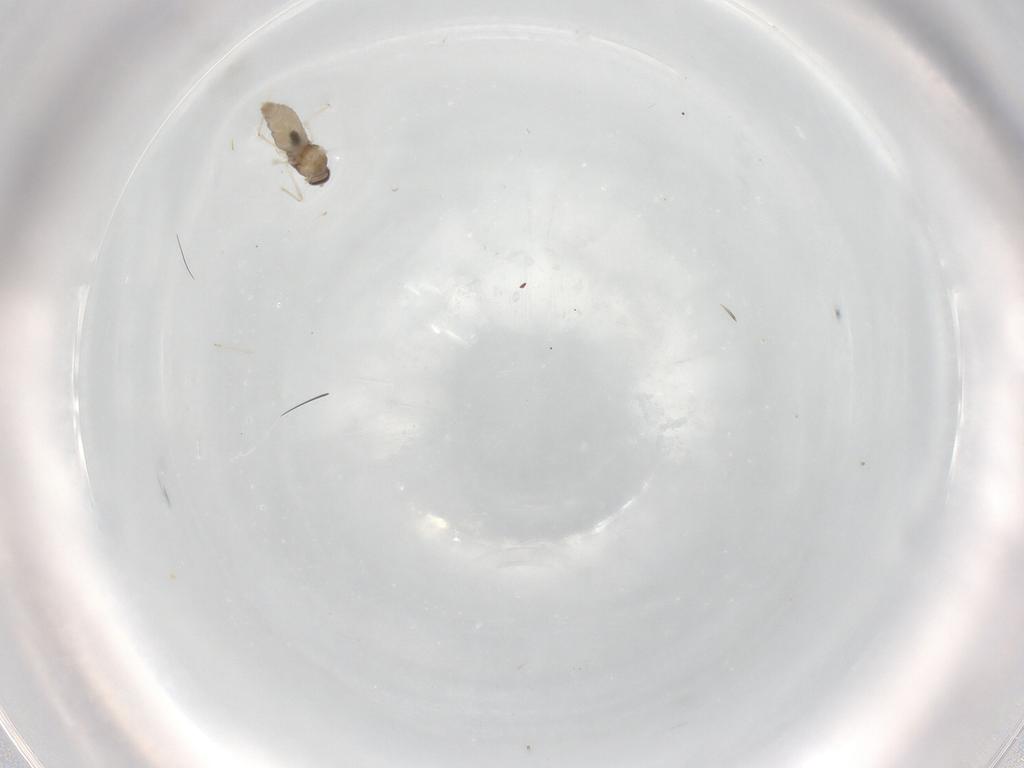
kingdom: Animalia
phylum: Arthropoda
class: Insecta
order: Diptera
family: Cecidomyiidae
